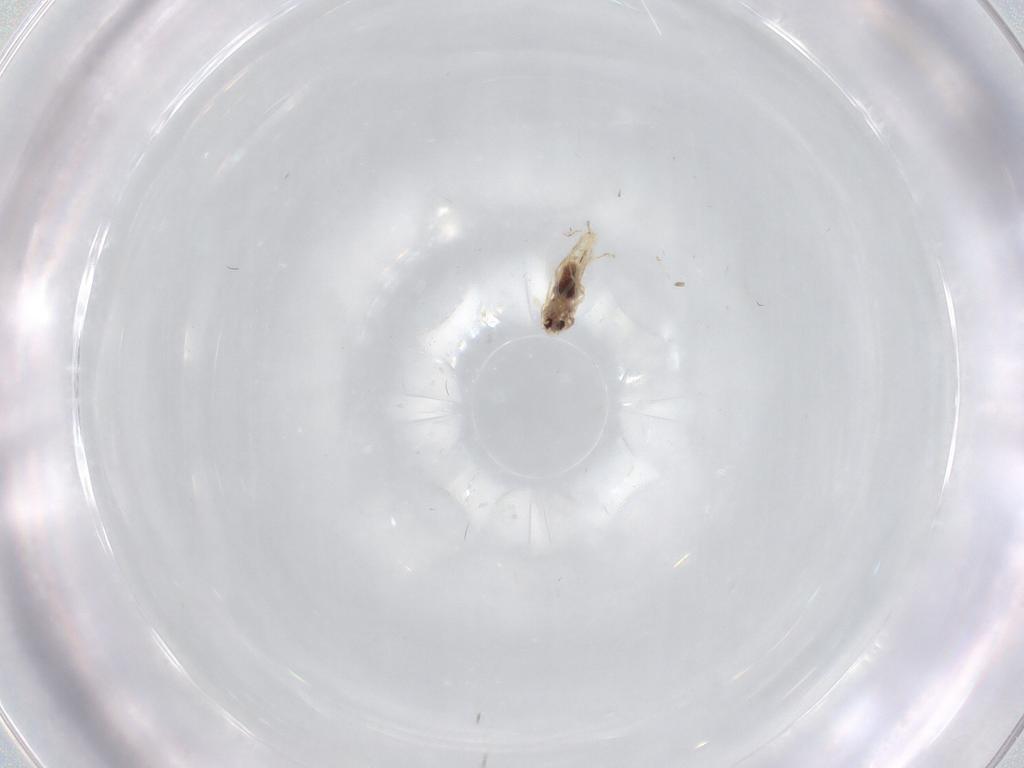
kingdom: Animalia
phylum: Arthropoda
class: Insecta
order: Hemiptera
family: Aleyrodidae
